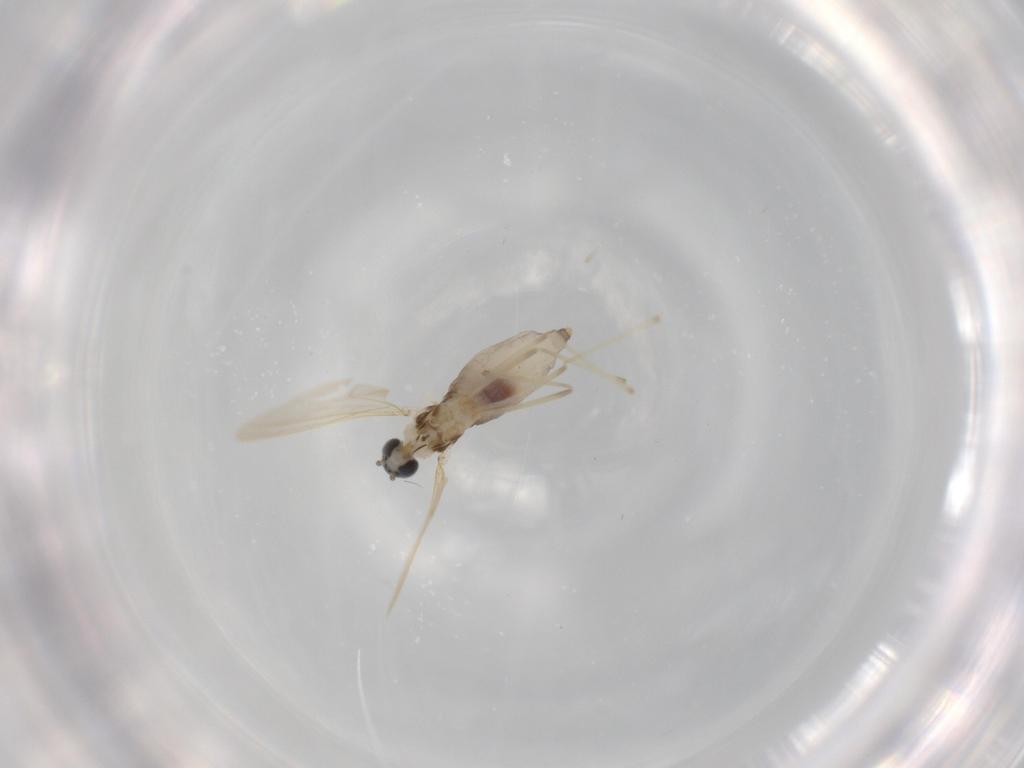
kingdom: Animalia
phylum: Arthropoda
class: Insecta
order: Diptera
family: Cecidomyiidae
